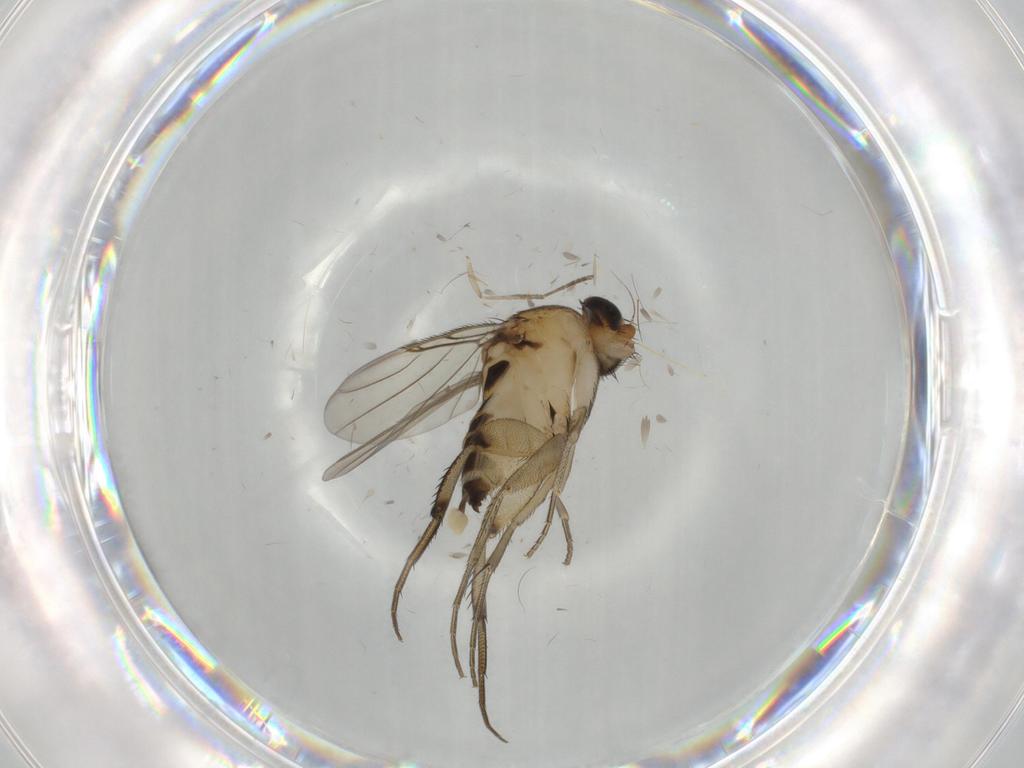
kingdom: Animalia
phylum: Arthropoda
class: Insecta
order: Diptera
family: Phoridae
